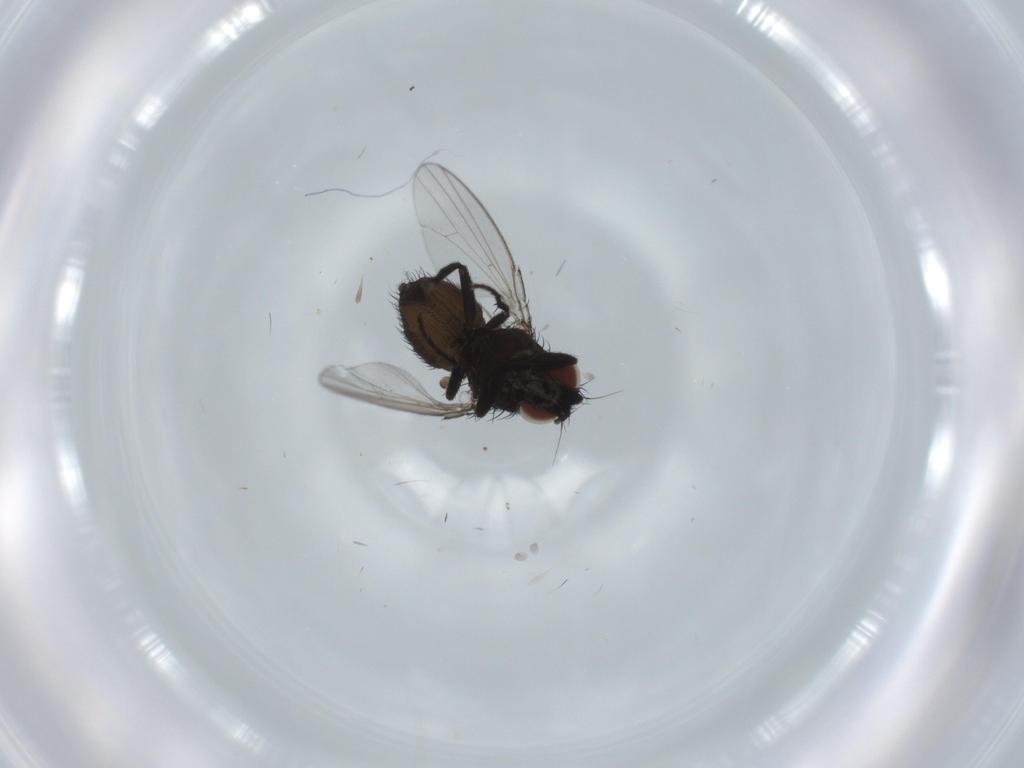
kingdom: Animalia
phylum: Arthropoda
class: Insecta
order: Diptera
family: Milichiidae
